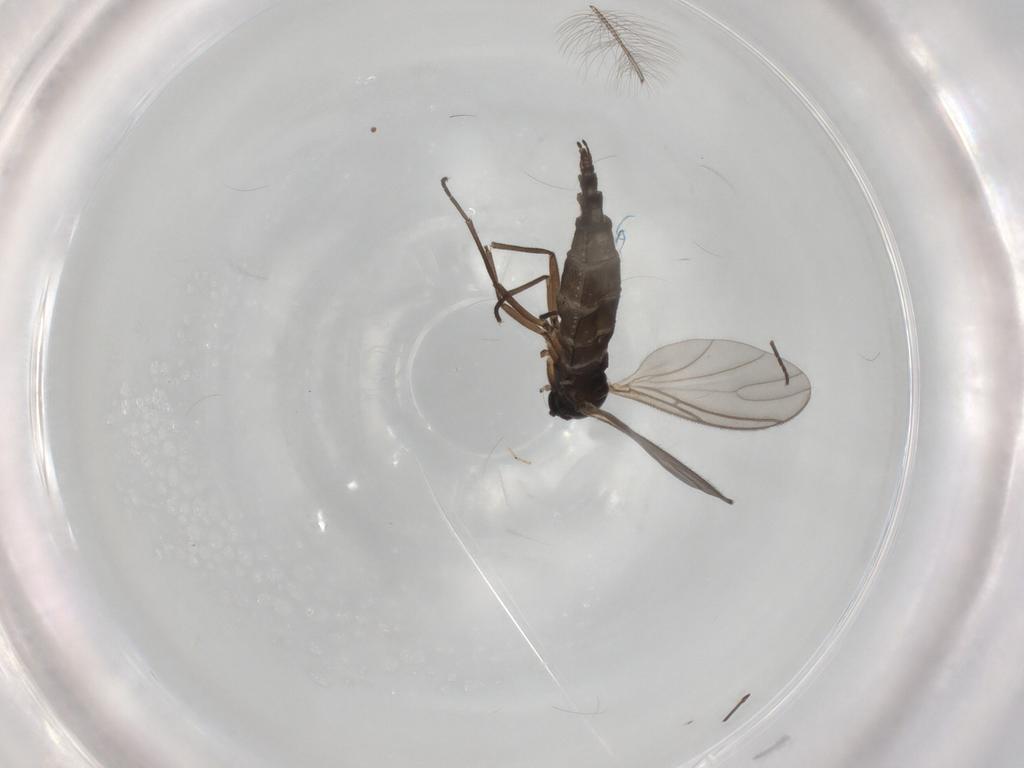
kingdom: Animalia
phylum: Arthropoda
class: Insecta
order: Diptera
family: Sciaridae
